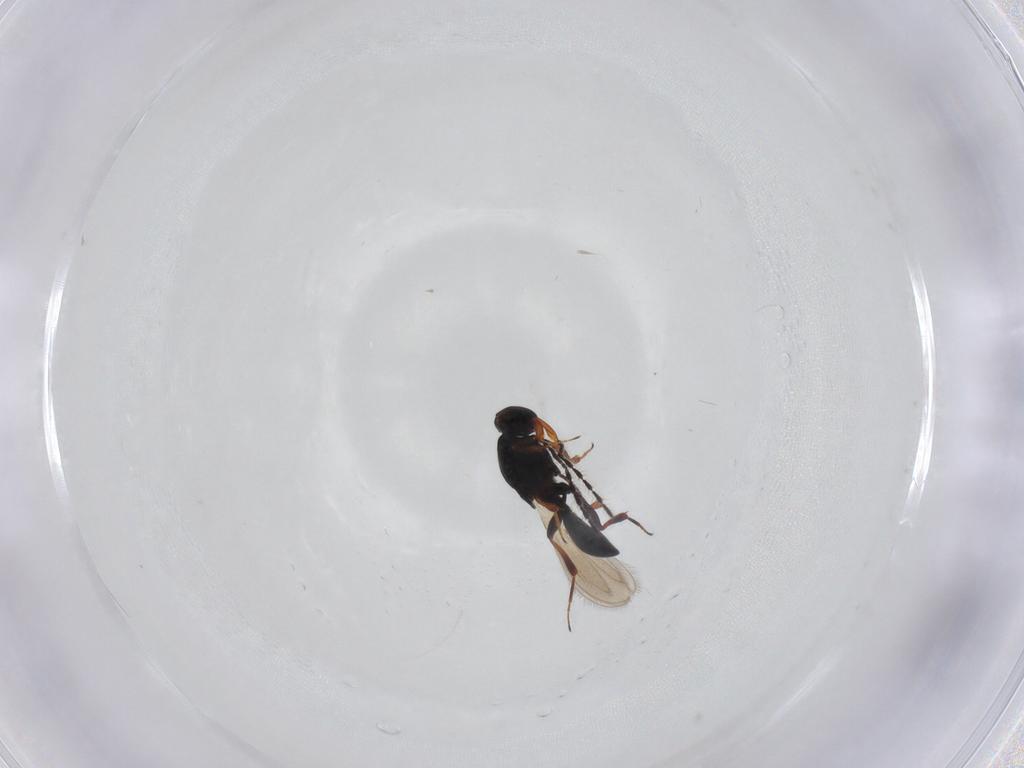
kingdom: Animalia
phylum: Arthropoda
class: Insecta
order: Hymenoptera
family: Apidae
